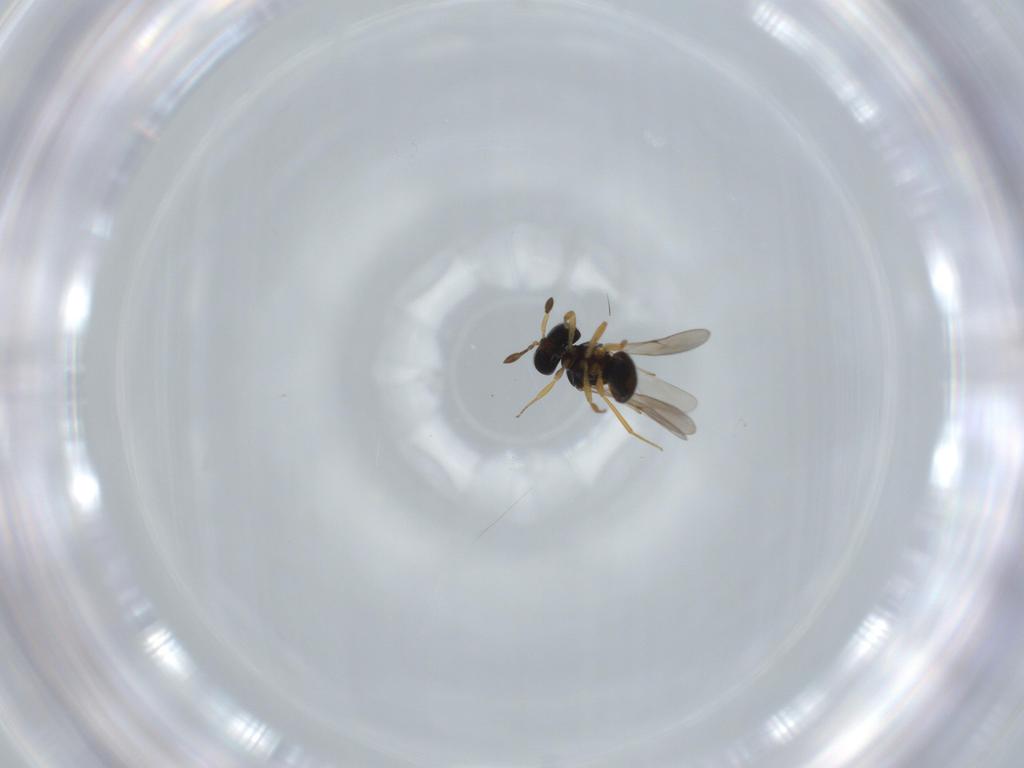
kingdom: Animalia
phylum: Arthropoda
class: Insecta
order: Hymenoptera
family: Scelionidae
